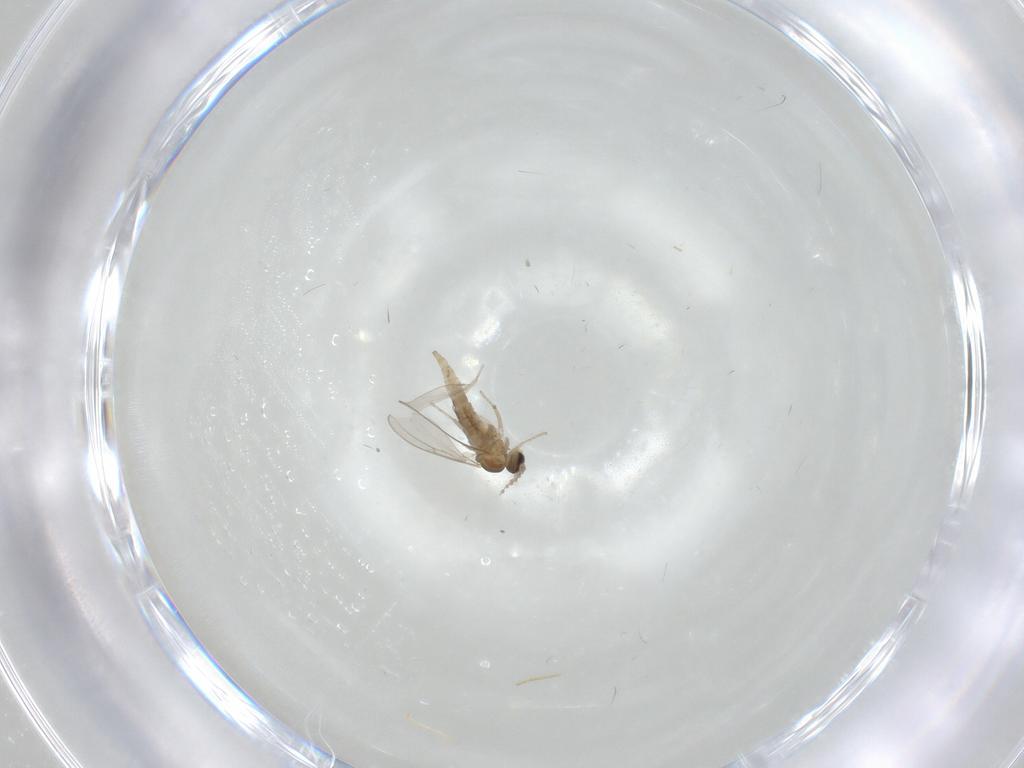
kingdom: Animalia
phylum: Arthropoda
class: Insecta
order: Diptera
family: Cecidomyiidae
